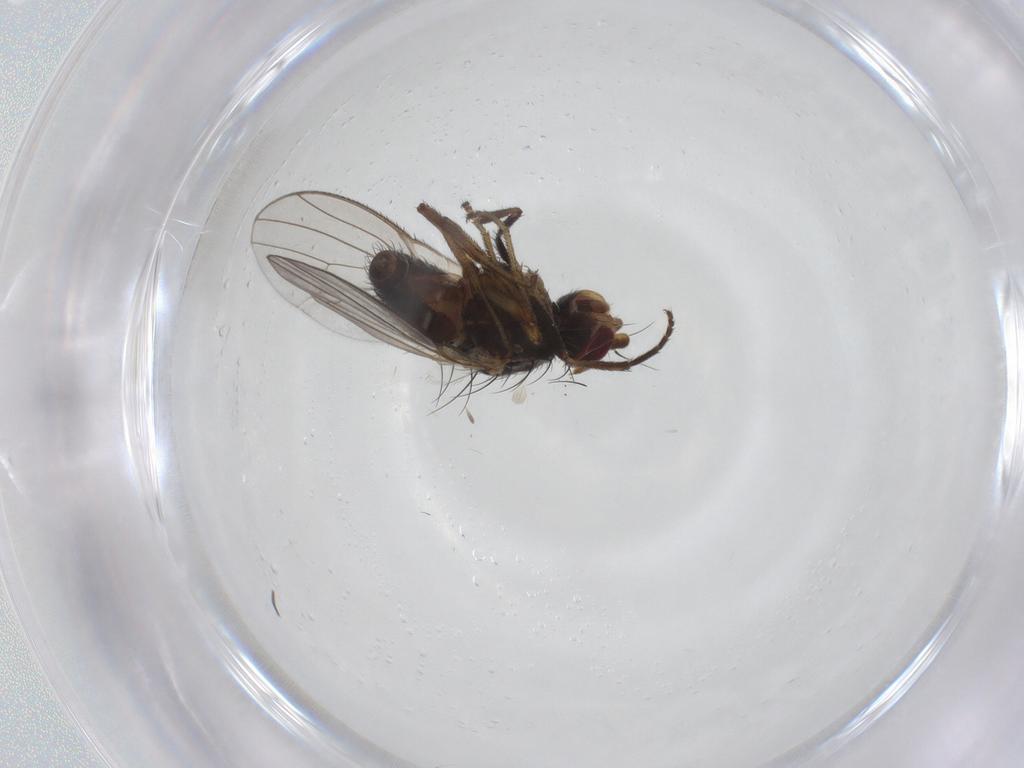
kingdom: Animalia
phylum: Arthropoda
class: Insecta
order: Diptera
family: Heleomyzidae
